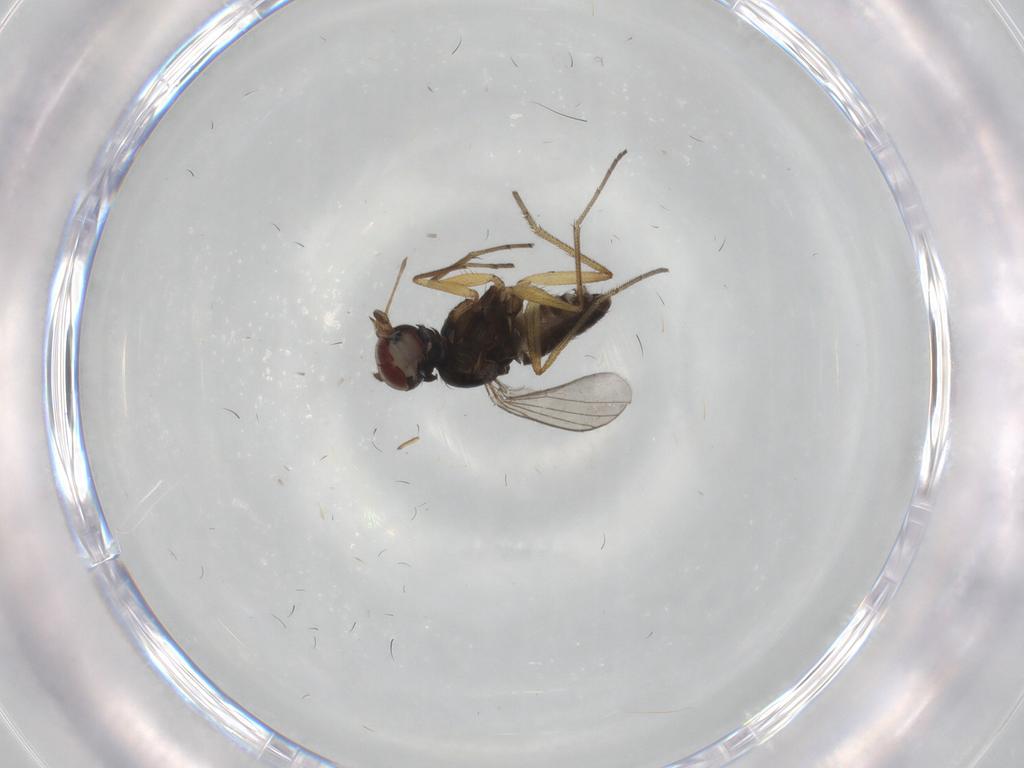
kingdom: Animalia
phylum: Arthropoda
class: Insecta
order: Diptera
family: Dolichopodidae
